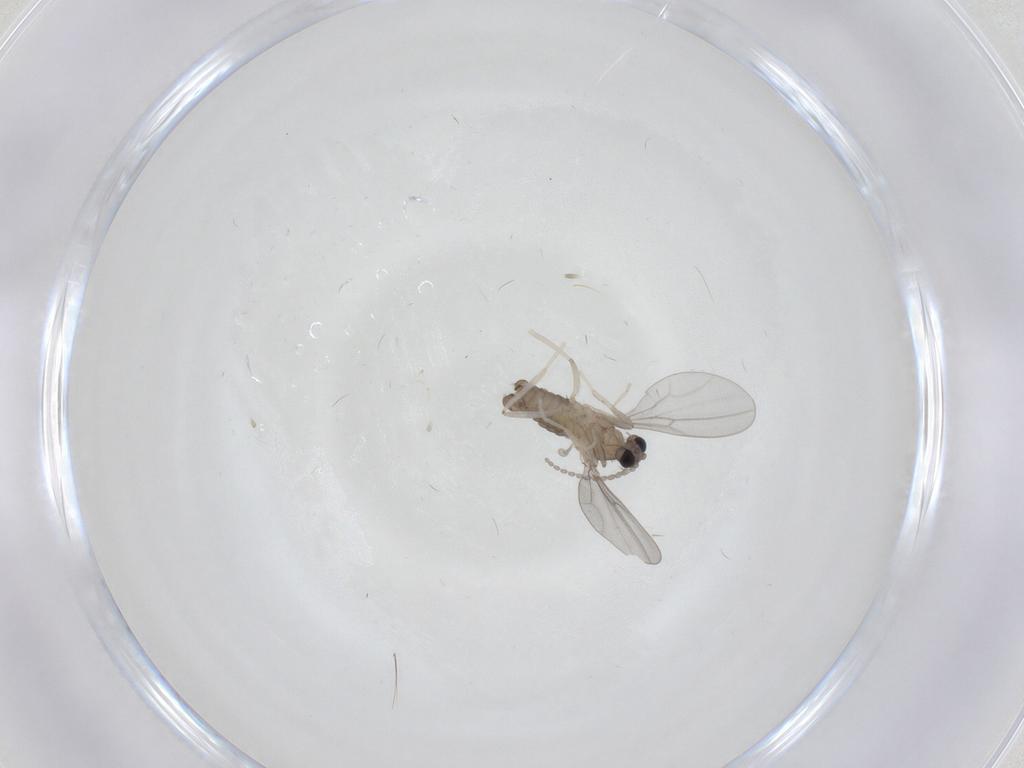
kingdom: Animalia
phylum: Arthropoda
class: Insecta
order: Diptera
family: Cecidomyiidae
